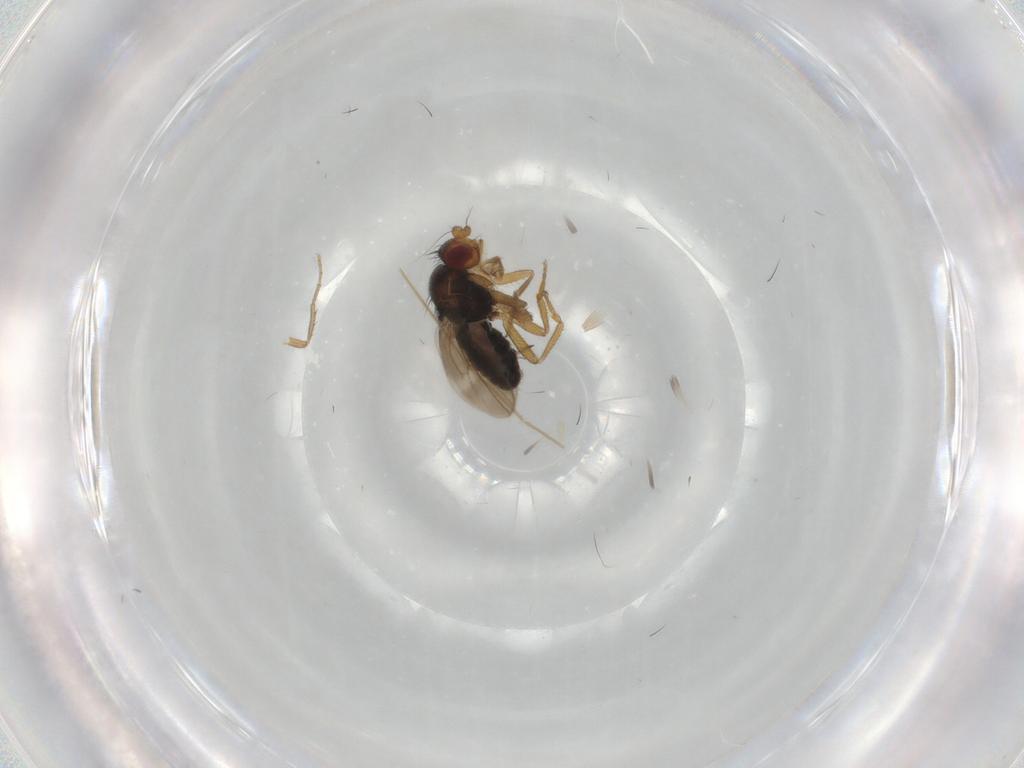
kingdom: Animalia
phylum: Arthropoda
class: Insecta
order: Diptera
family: Sphaeroceridae
